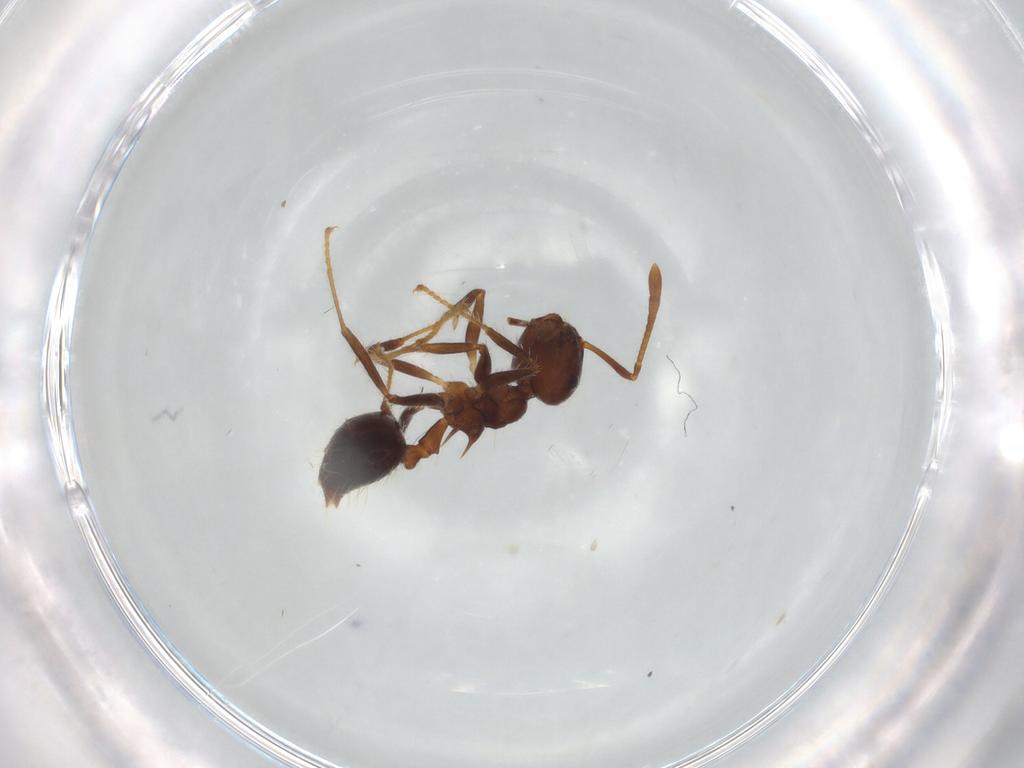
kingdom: Animalia
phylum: Arthropoda
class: Insecta
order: Hymenoptera
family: Formicidae
